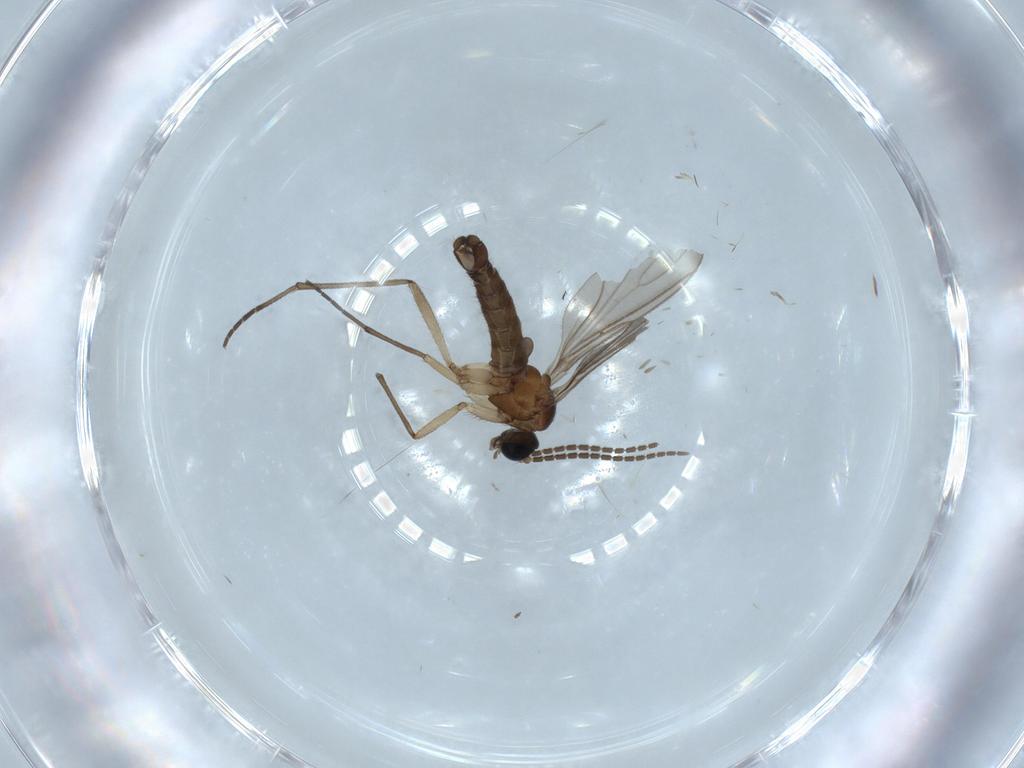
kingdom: Animalia
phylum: Arthropoda
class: Insecta
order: Diptera
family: Sciaridae
